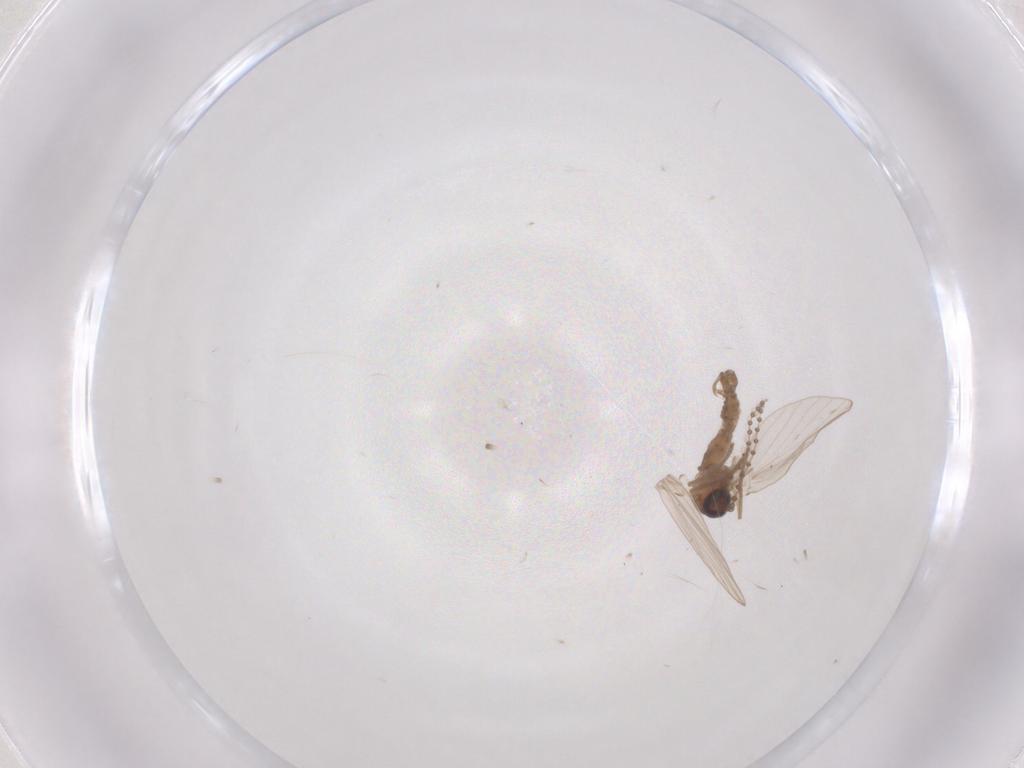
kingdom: Animalia
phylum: Arthropoda
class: Insecta
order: Diptera
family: Psychodidae
